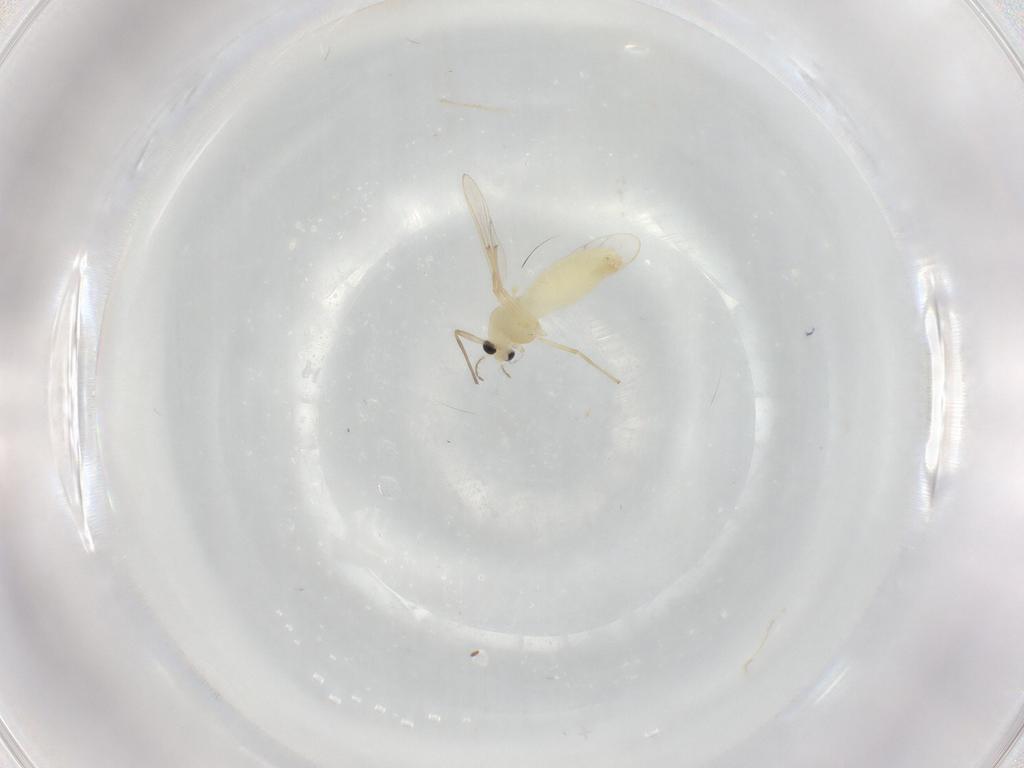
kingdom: Animalia
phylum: Arthropoda
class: Insecta
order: Diptera
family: Chironomidae
